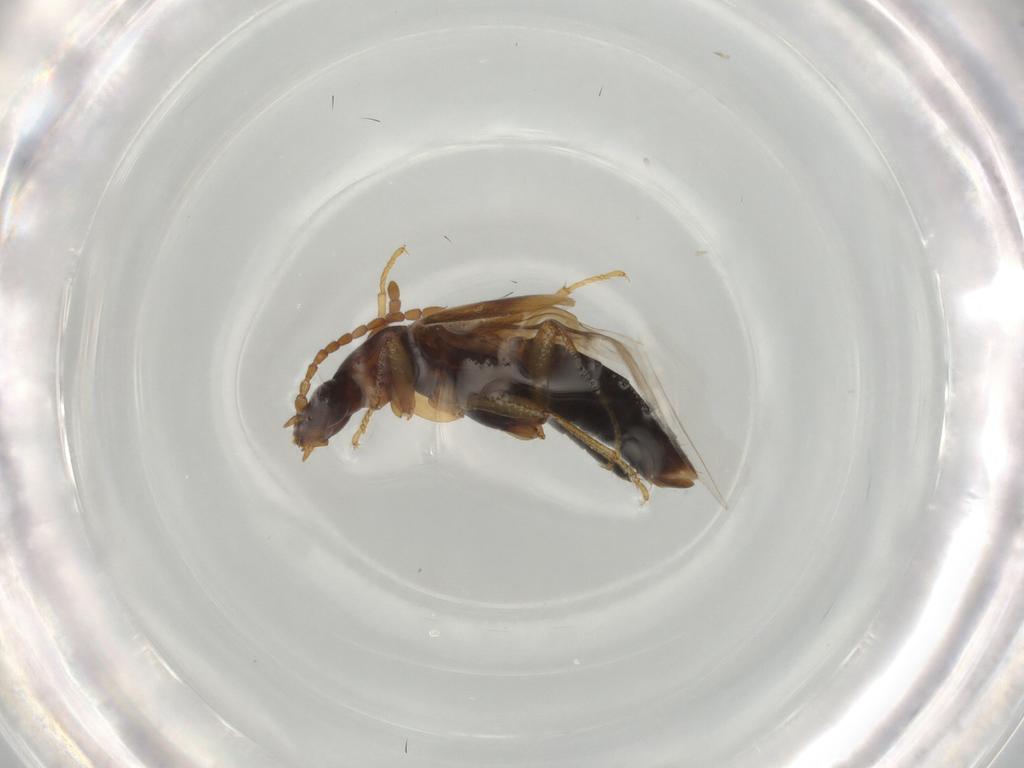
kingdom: Animalia
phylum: Arthropoda
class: Insecta
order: Coleoptera
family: Staphylinidae
